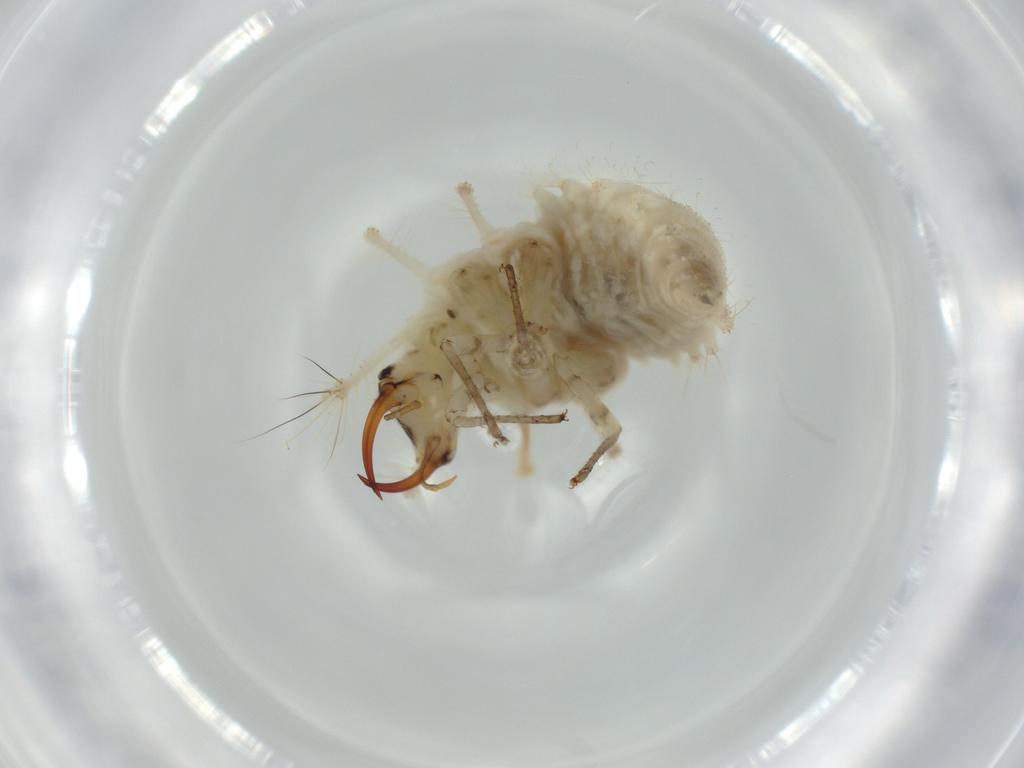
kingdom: Animalia
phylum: Arthropoda
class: Insecta
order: Neuroptera
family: Chrysopidae
